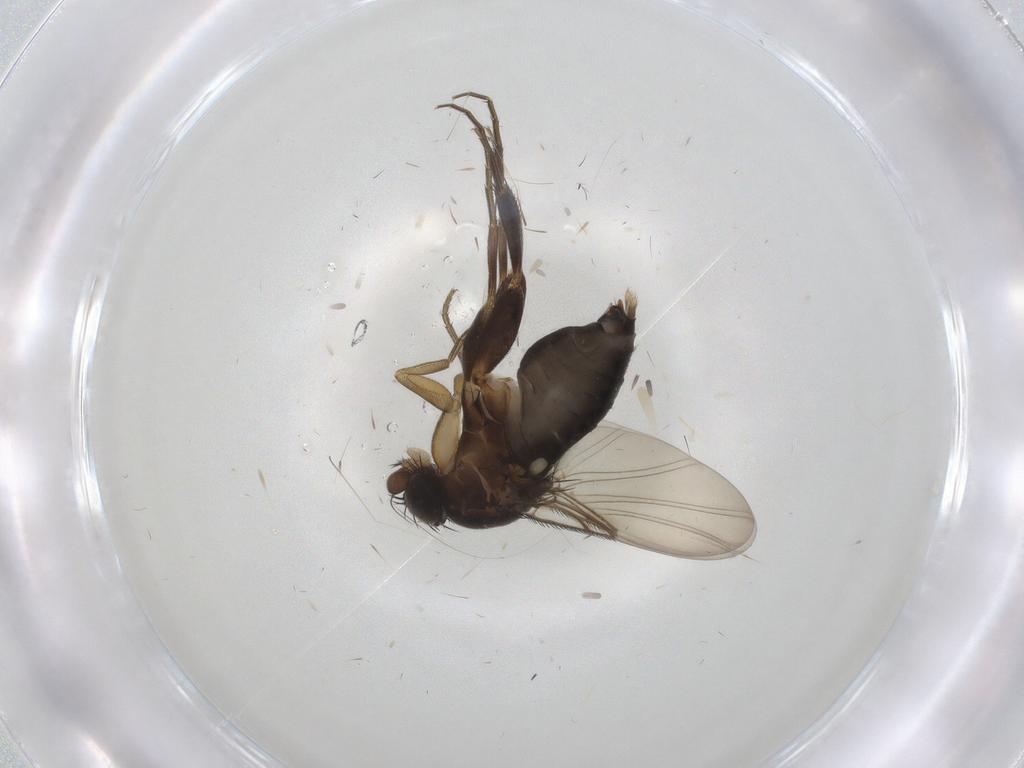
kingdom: Animalia
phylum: Arthropoda
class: Insecta
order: Diptera
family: Phoridae
